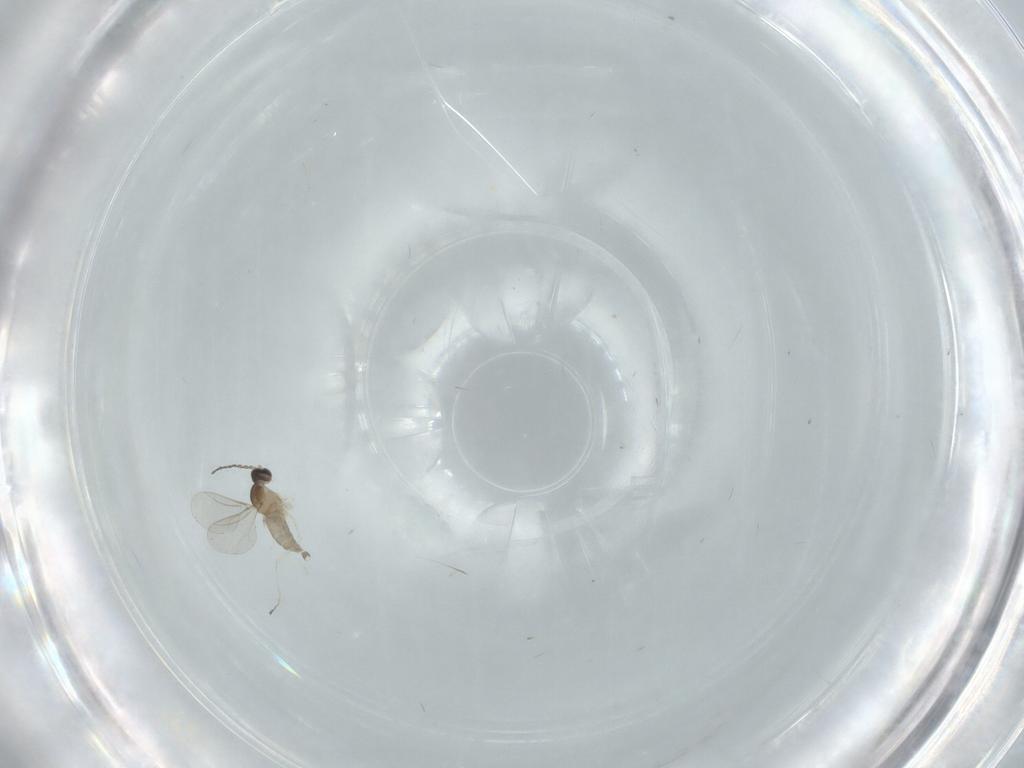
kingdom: Animalia
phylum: Arthropoda
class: Insecta
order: Diptera
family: Cecidomyiidae
